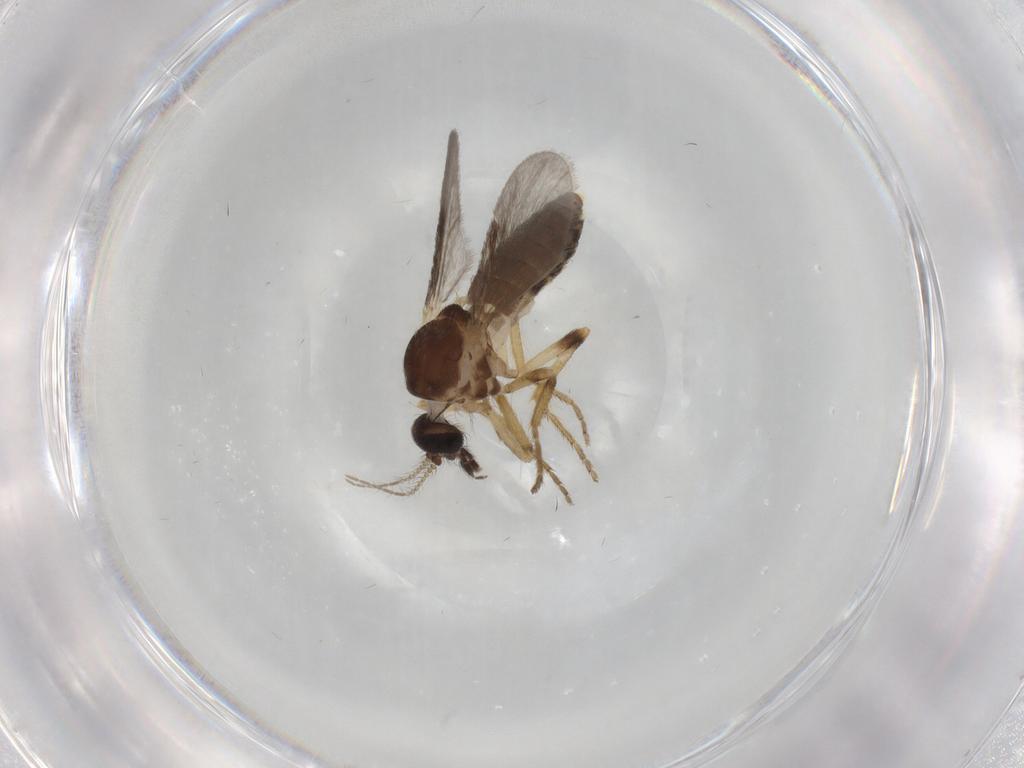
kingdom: Animalia
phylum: Arthropoda
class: Insecta
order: Diptera
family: Ceratopogonidae
